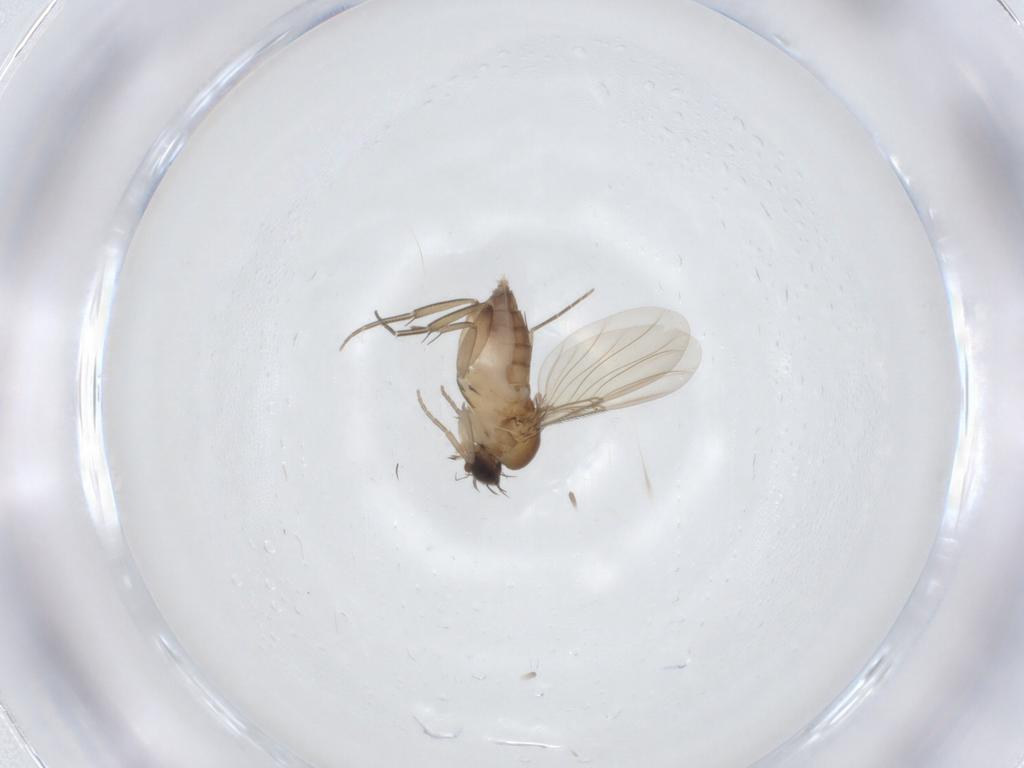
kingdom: Animalia
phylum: Arthropoda
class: Insecta
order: Diptera
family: Phoridae
